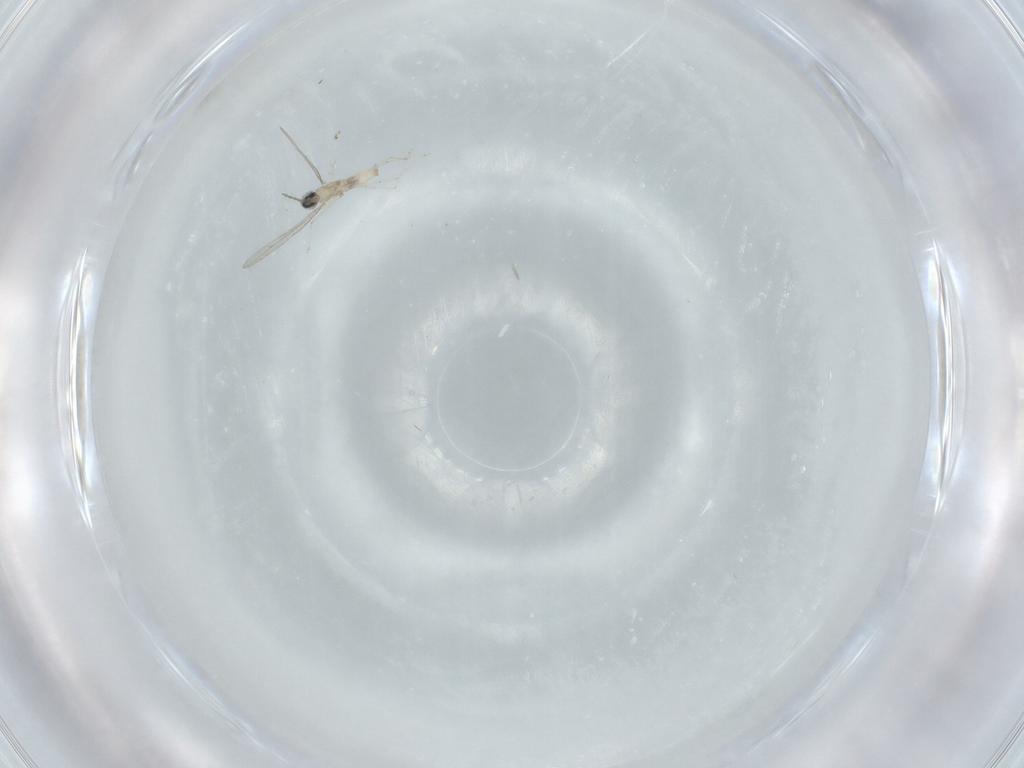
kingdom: Animalia
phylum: Arthropoda
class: Insecta
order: Diptera
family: Cecidomyiidae
